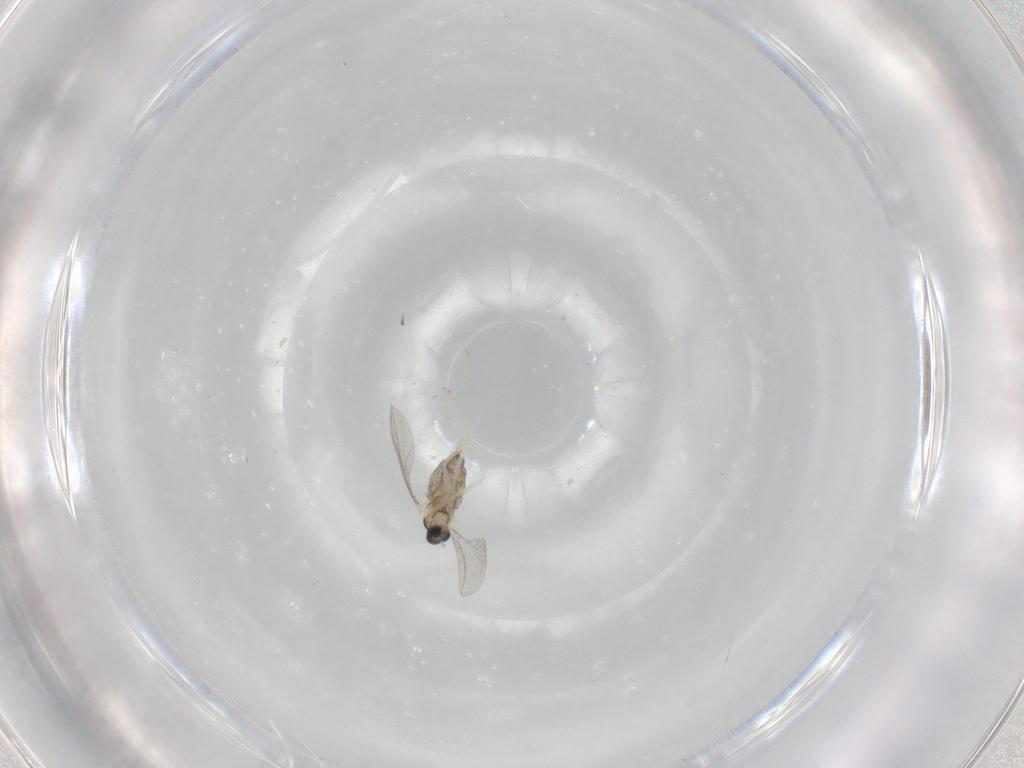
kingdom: Animalia
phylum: Arthropoda
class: Insecta
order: Diptera
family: Cecidomyiidae
